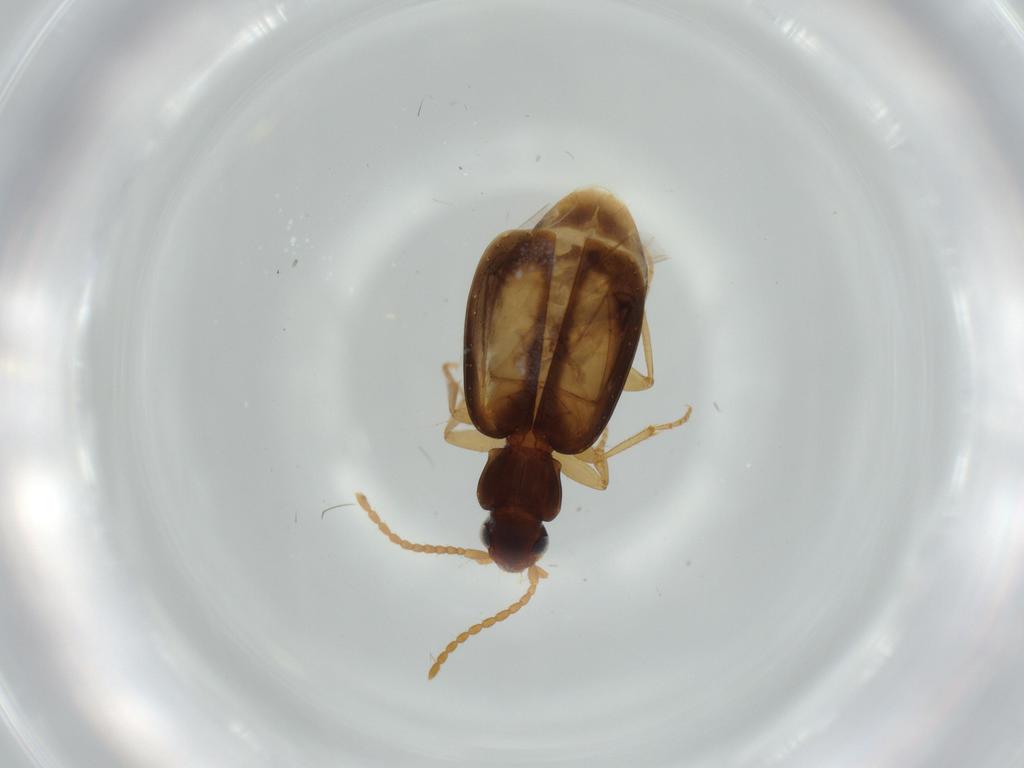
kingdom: Animalia
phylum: Arthropoda
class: Insecta
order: Coleoptera
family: Carabidae
